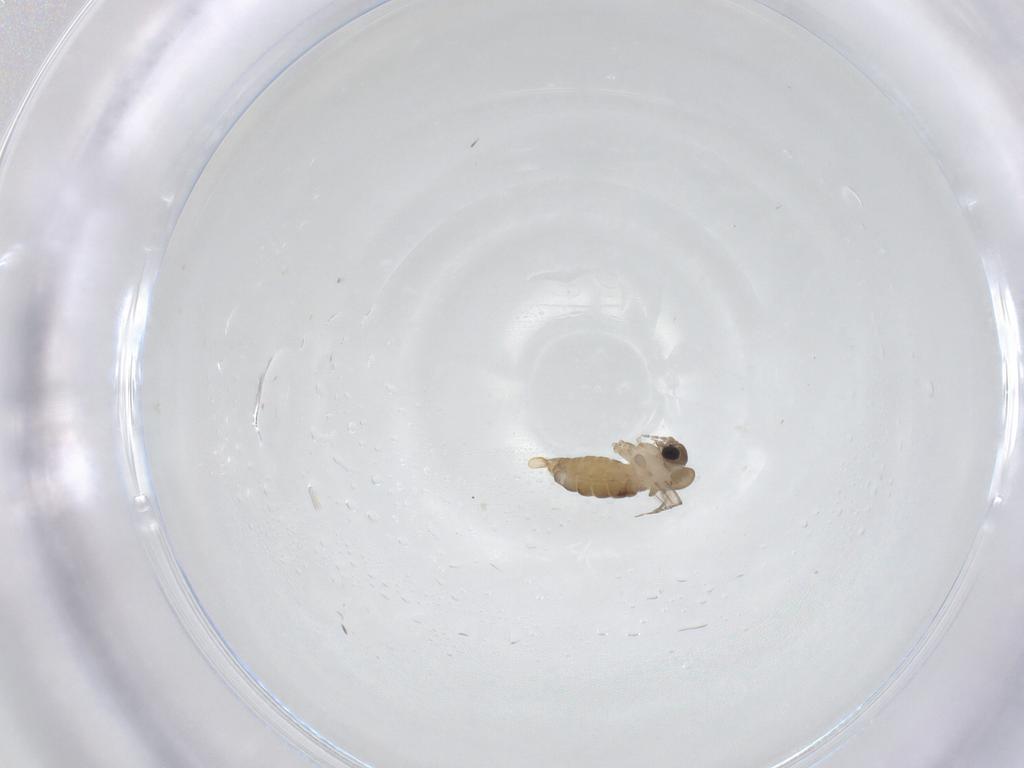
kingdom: Animalia
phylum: Arthropoda
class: Insecta
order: Diptera
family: Psychodidae
